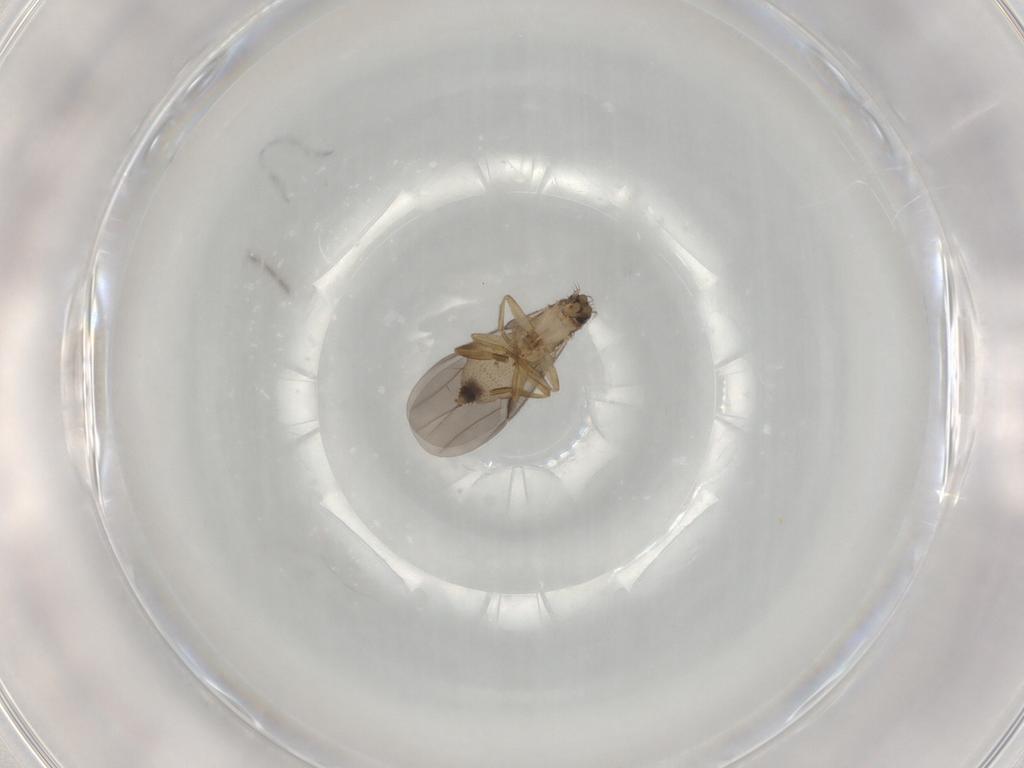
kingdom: Animalia
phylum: Arthropoda
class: Insecta
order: Diptera
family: Phoridae
